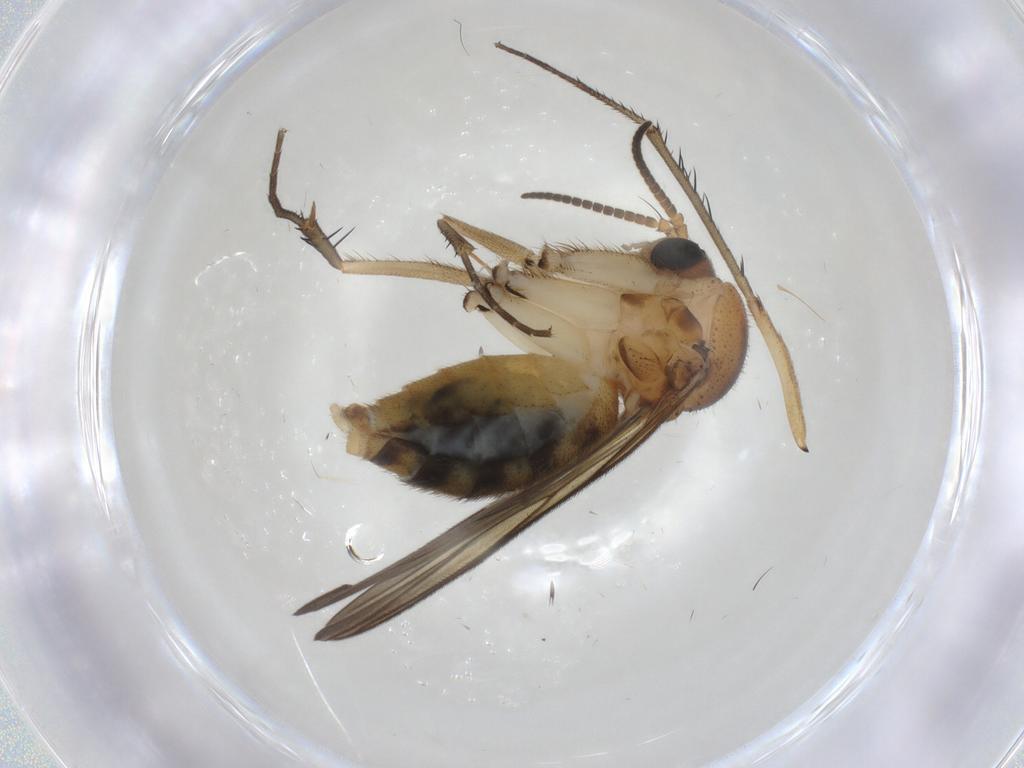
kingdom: Animalia
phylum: Arthropoda
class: Insecta
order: Diptera
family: Mycetophilidae
